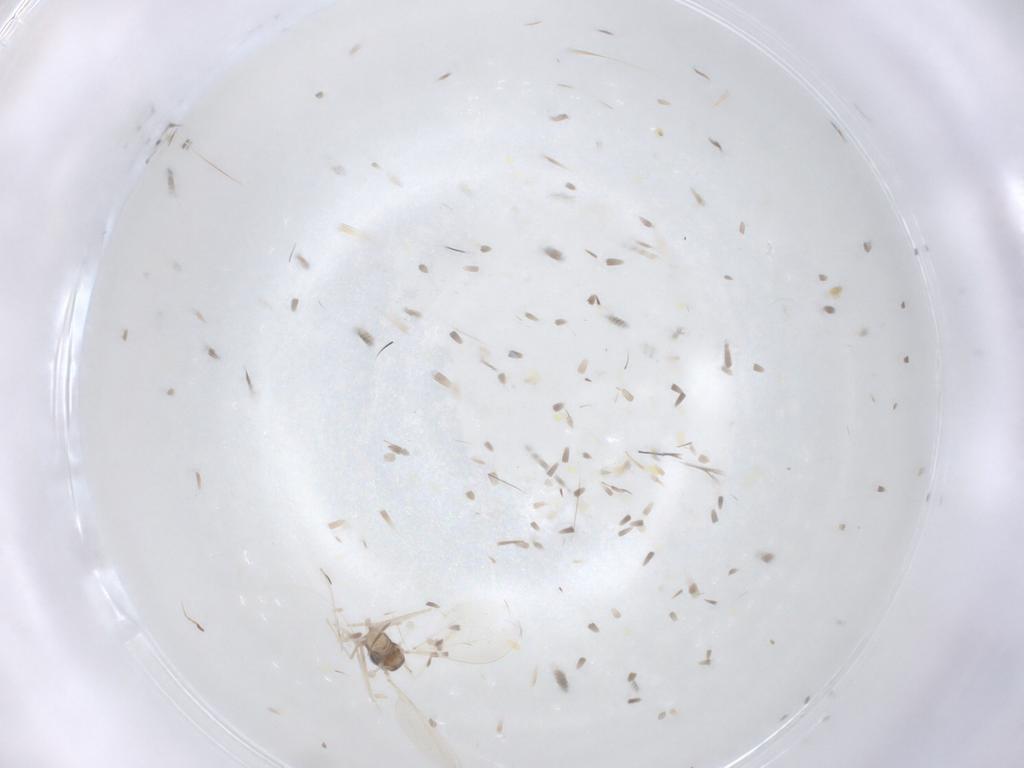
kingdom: Animalia
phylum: Arthropoda
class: Insecta
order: Diptera
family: Cecidomyiidae
